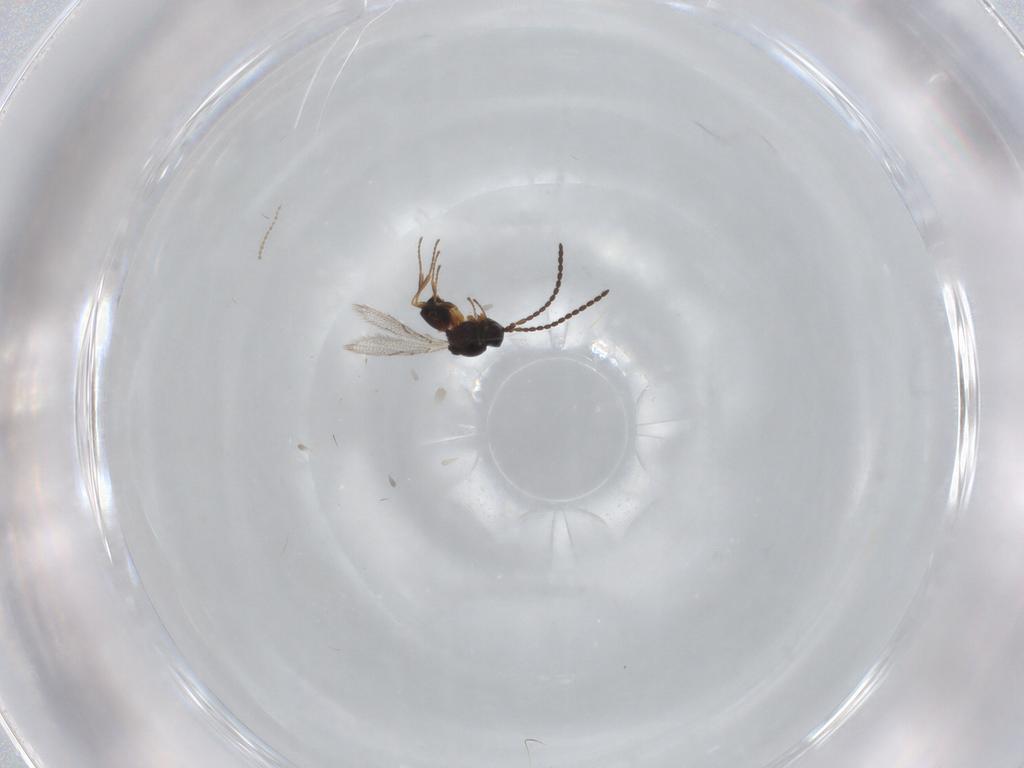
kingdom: Animalia
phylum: Arthropoda
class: Insecta
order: Hymenoptera
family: Figitidae
